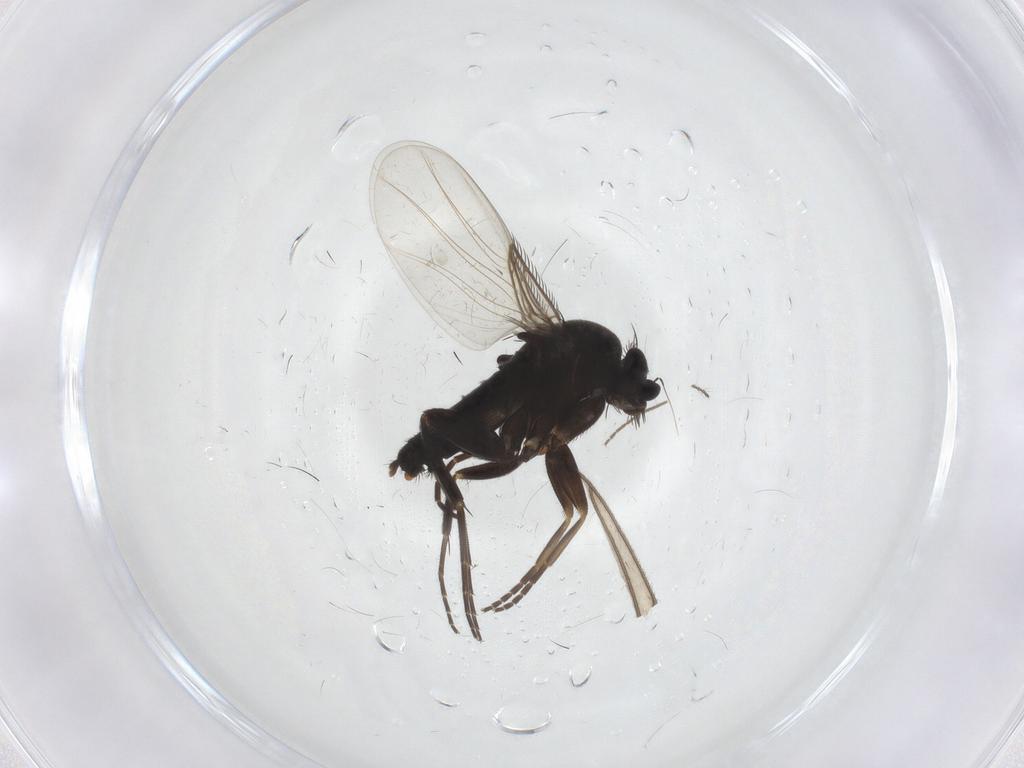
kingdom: Animalia
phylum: Arthropoda
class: Insecta
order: Diptera
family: Phoridae
